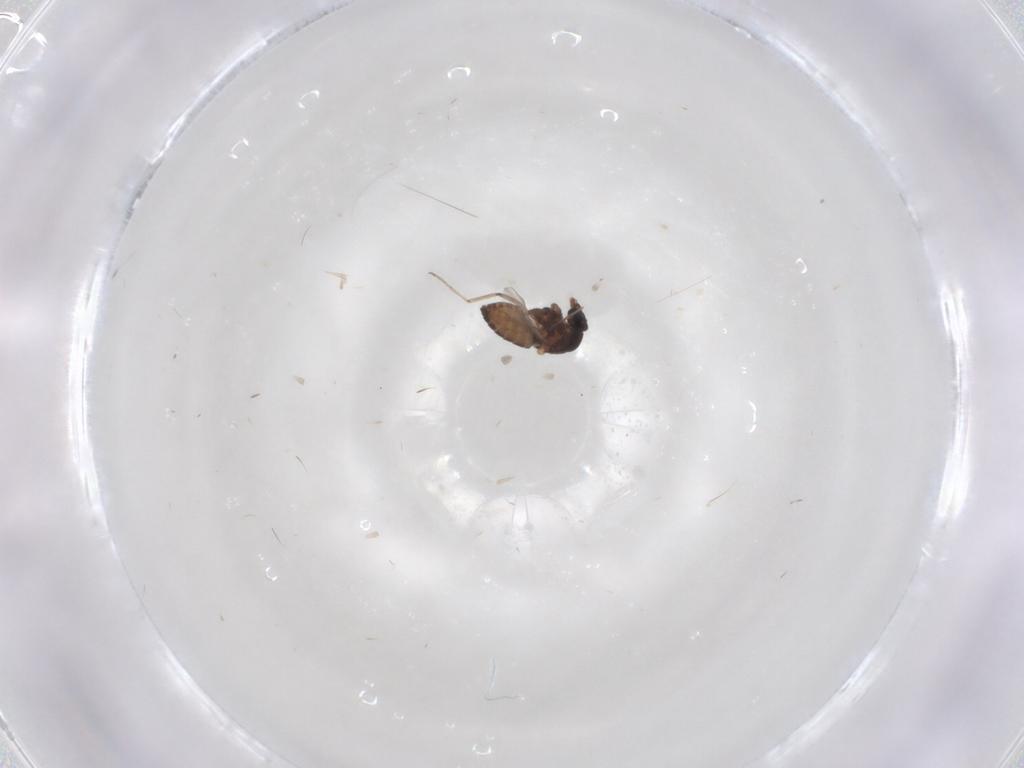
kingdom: Animalia
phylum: Arthropoda
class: Insecta
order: Diptera
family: Ceratopogonidae
